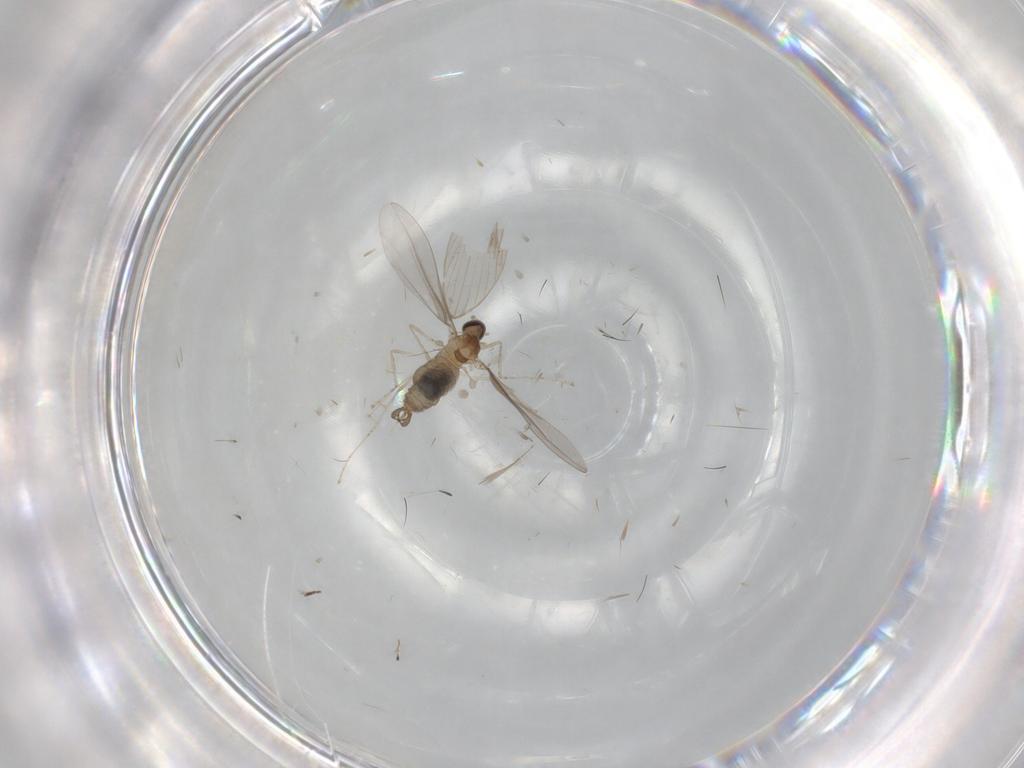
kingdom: Animalia
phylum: Arthropoda
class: Insecta
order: Diptera
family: Cecidomyiidae
